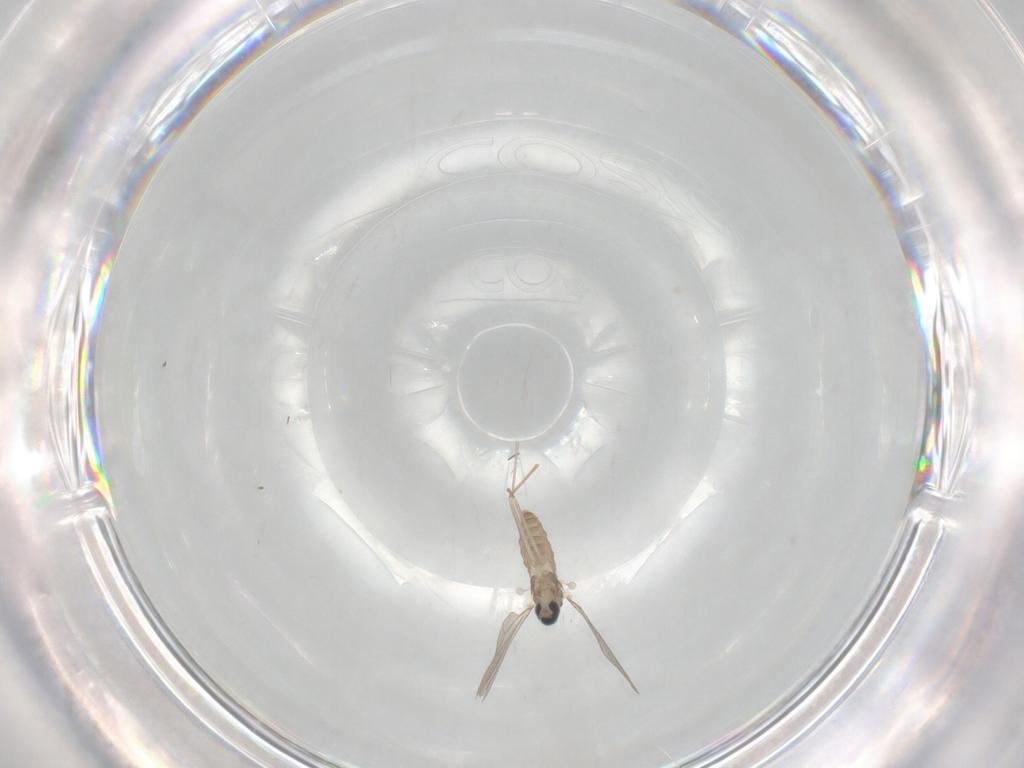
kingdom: Animalia
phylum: Arthropoda
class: Insecta
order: Diptera
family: Cecidomyiidae
